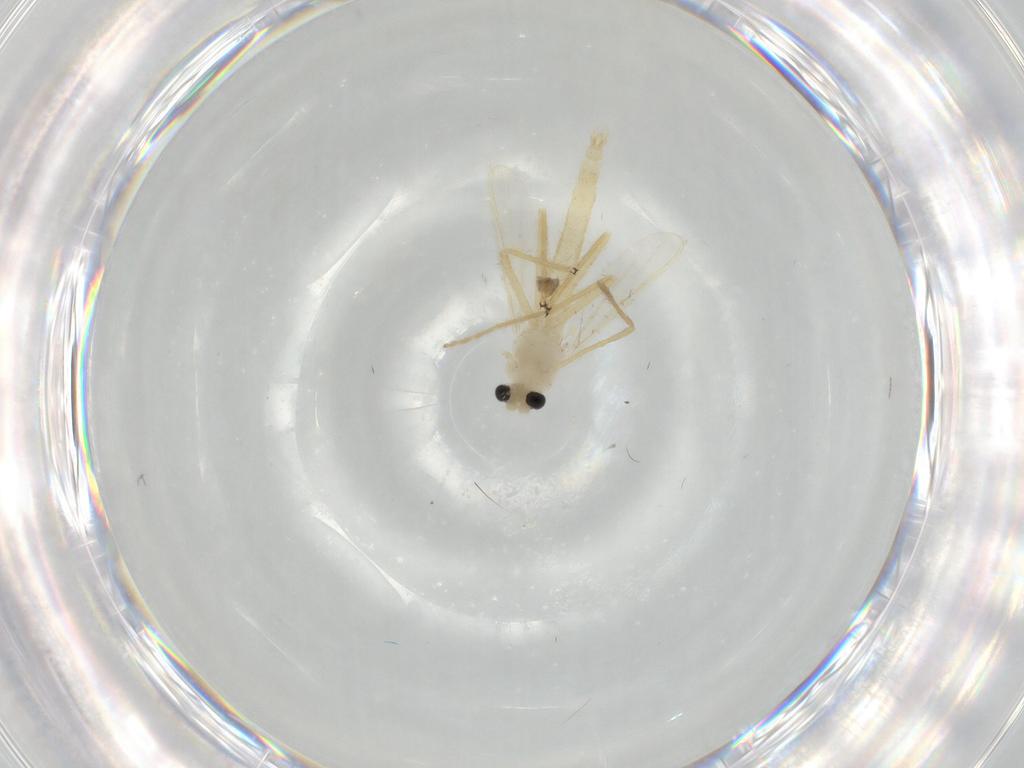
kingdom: Animalia
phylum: Arthropoda
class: Insecta
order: Diptera
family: Chironomidae
